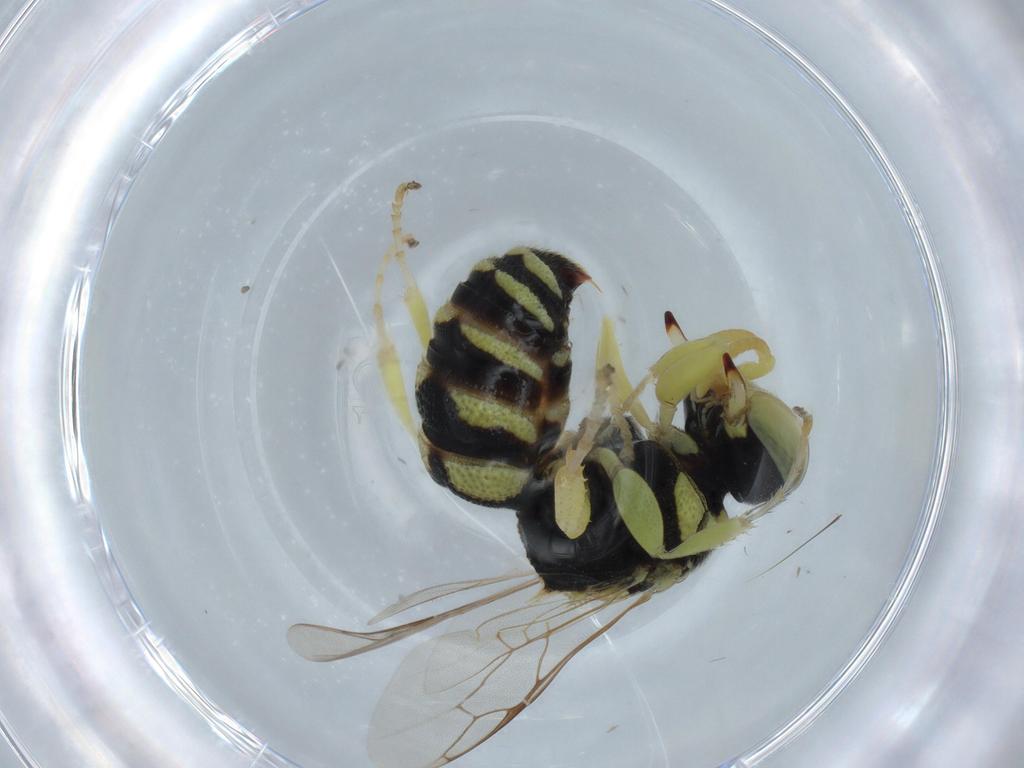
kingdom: Animalia
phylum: Arthropoda
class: Insecta
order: Hymenoptera
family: Crabronidae
